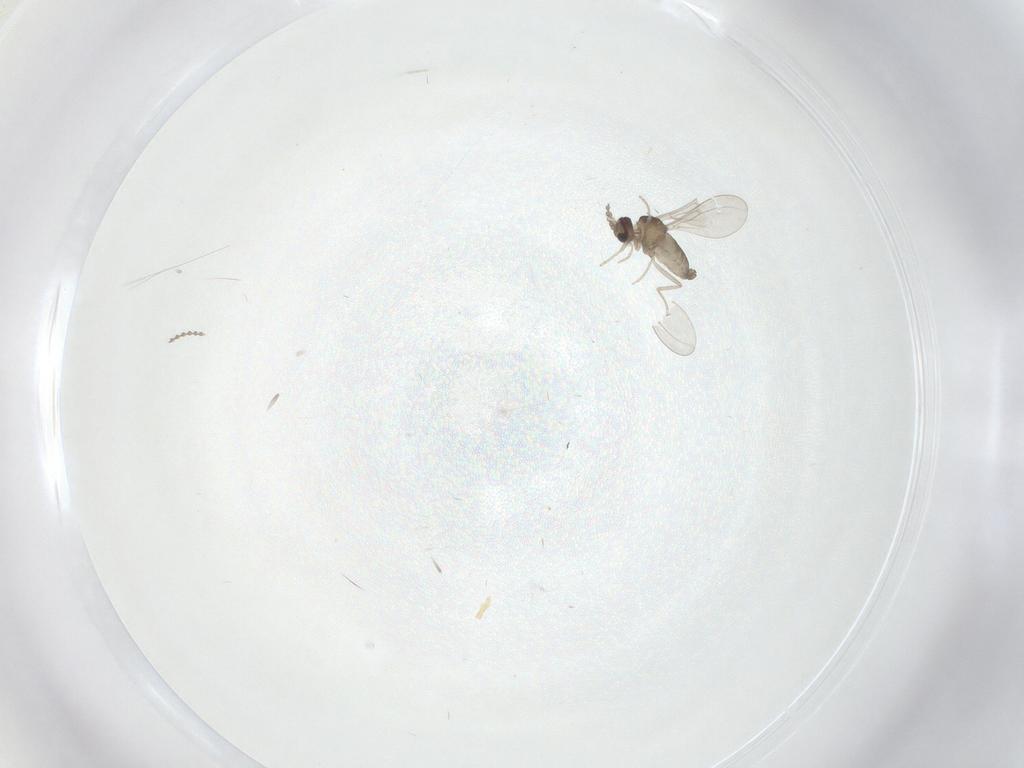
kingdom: Animalia
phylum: Arthropoda
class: Insecta
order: Diptera
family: Cecidomyiidae
